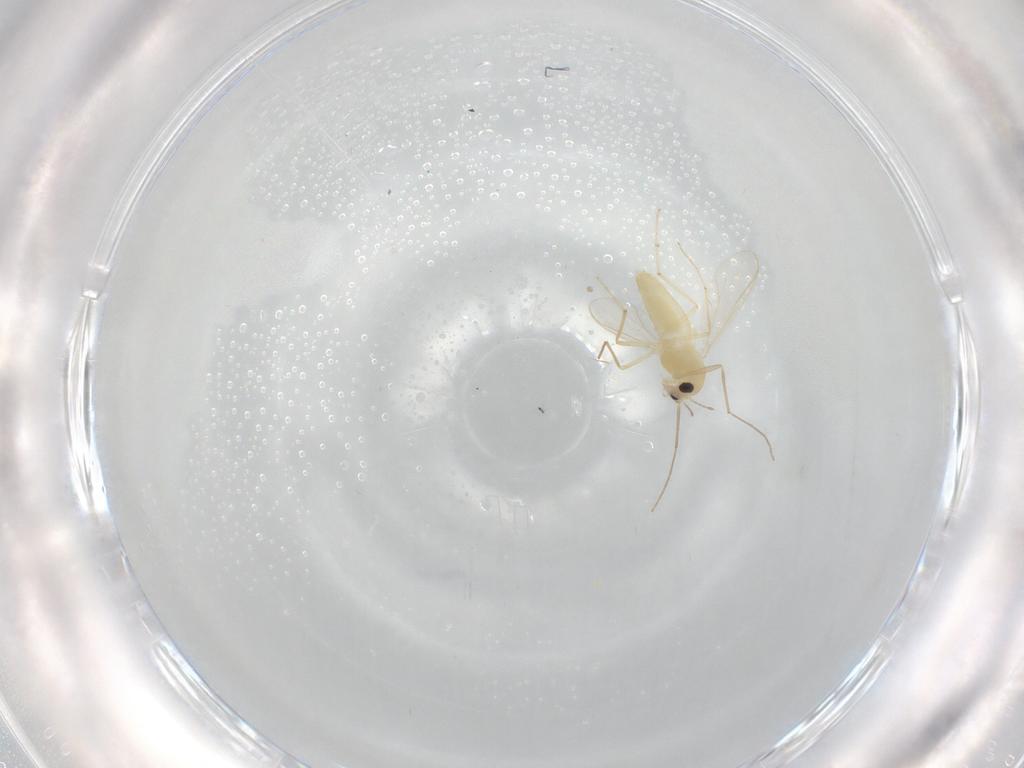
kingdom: Animalia
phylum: Arthropoda
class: Insecta
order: Diptera
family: Chironomidae
